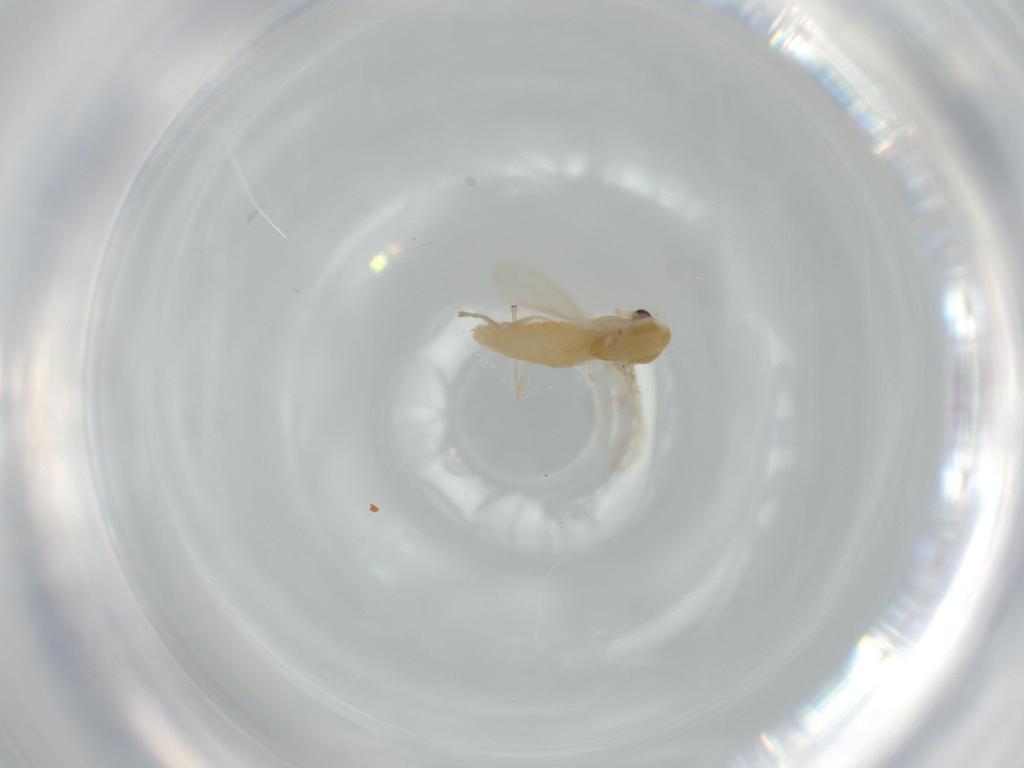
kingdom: Animalia
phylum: Arthropoda
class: Insecta
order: Diptera
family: Chironomidae
